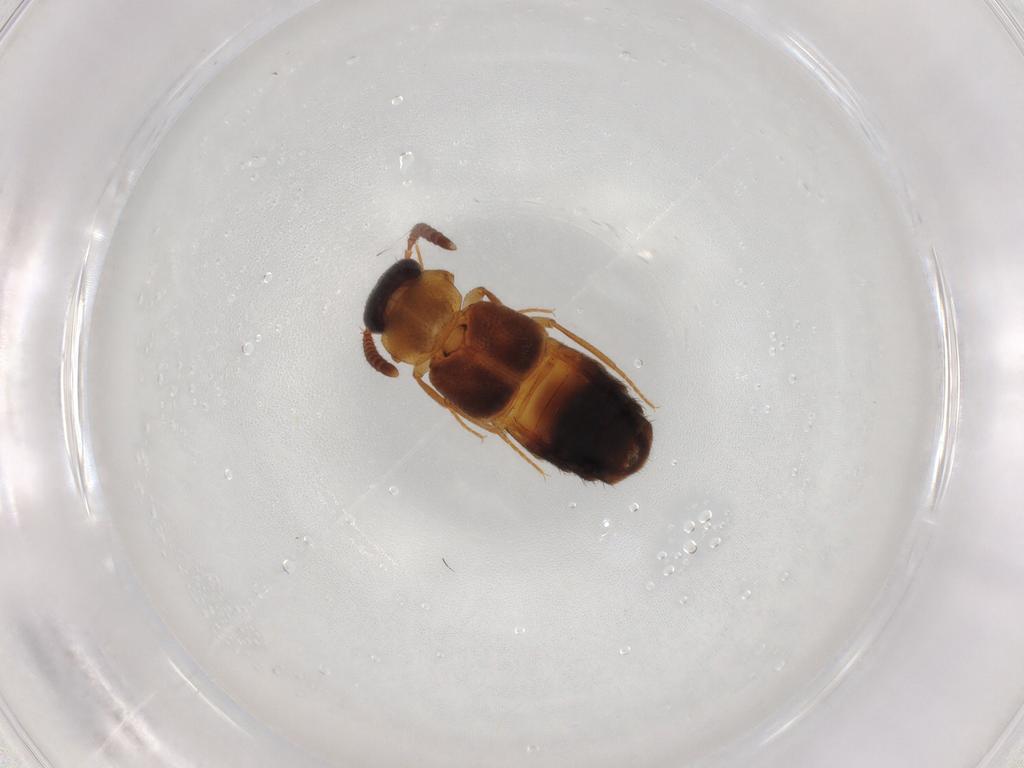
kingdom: Animalia
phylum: Arthropoda
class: Insecta
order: Coleoptera
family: Staphylinidae
